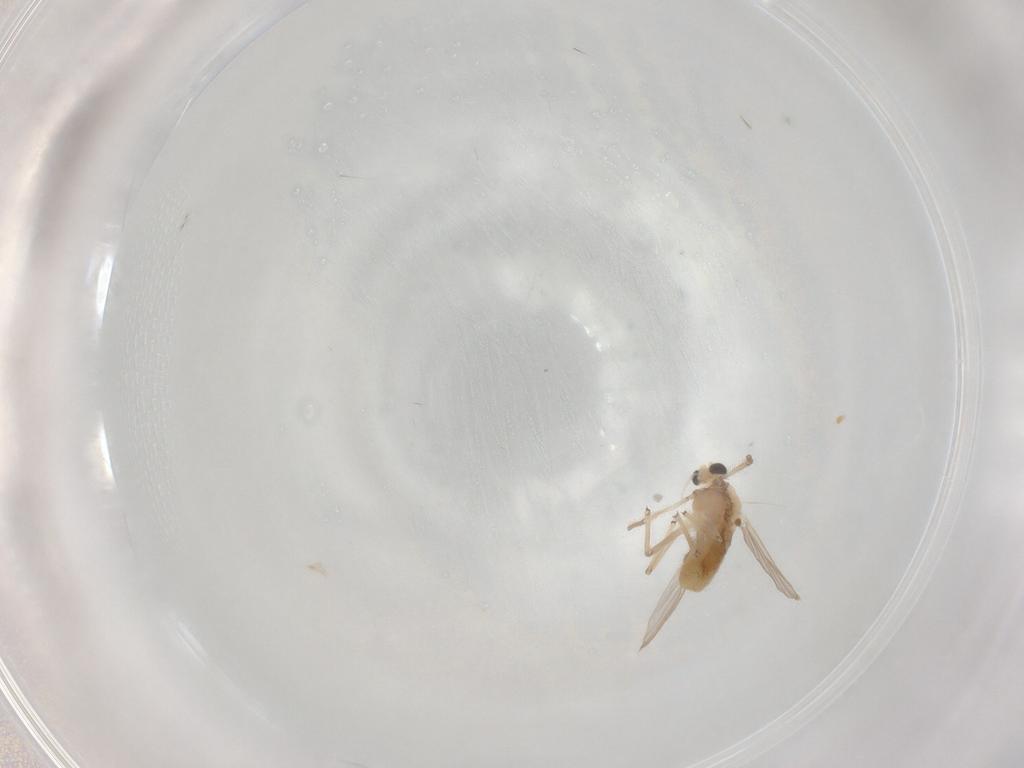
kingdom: Animalia
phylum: Arthropoda
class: Insecta
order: Diptera
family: Chironomidae
